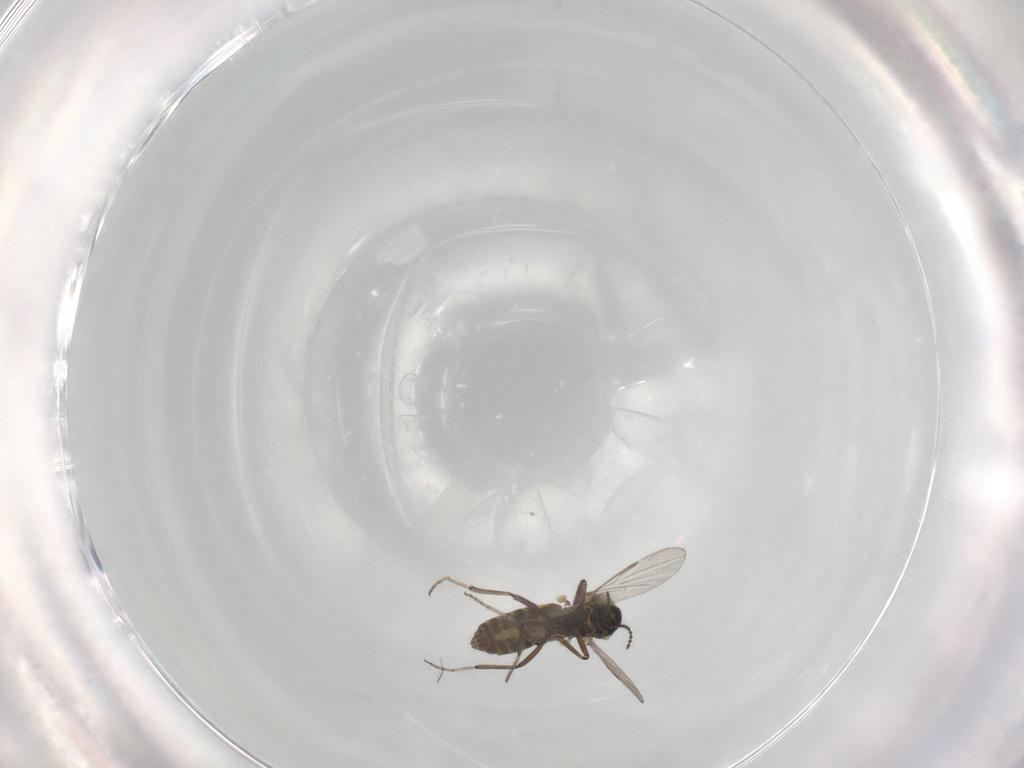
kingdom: Animalia
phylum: Arthropoda
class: Insecta
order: Diptera
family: Ceratopogonidae
